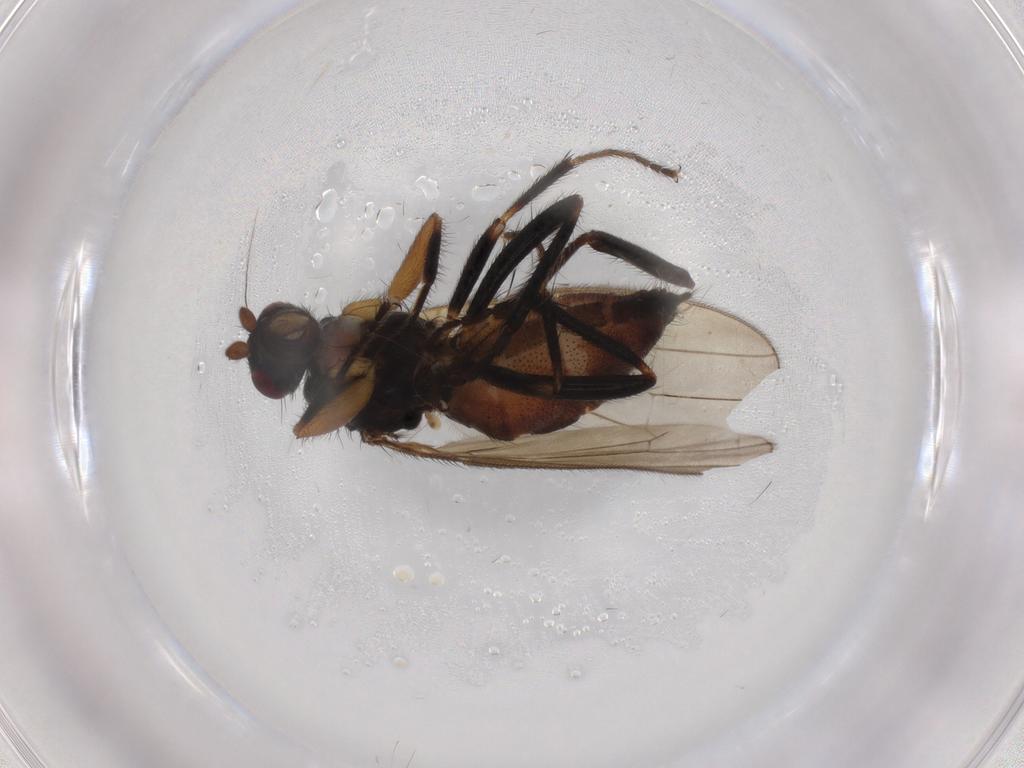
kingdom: Animalia
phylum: Arthropoda
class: Insecta
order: Diptera
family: Sphaeroceridae
